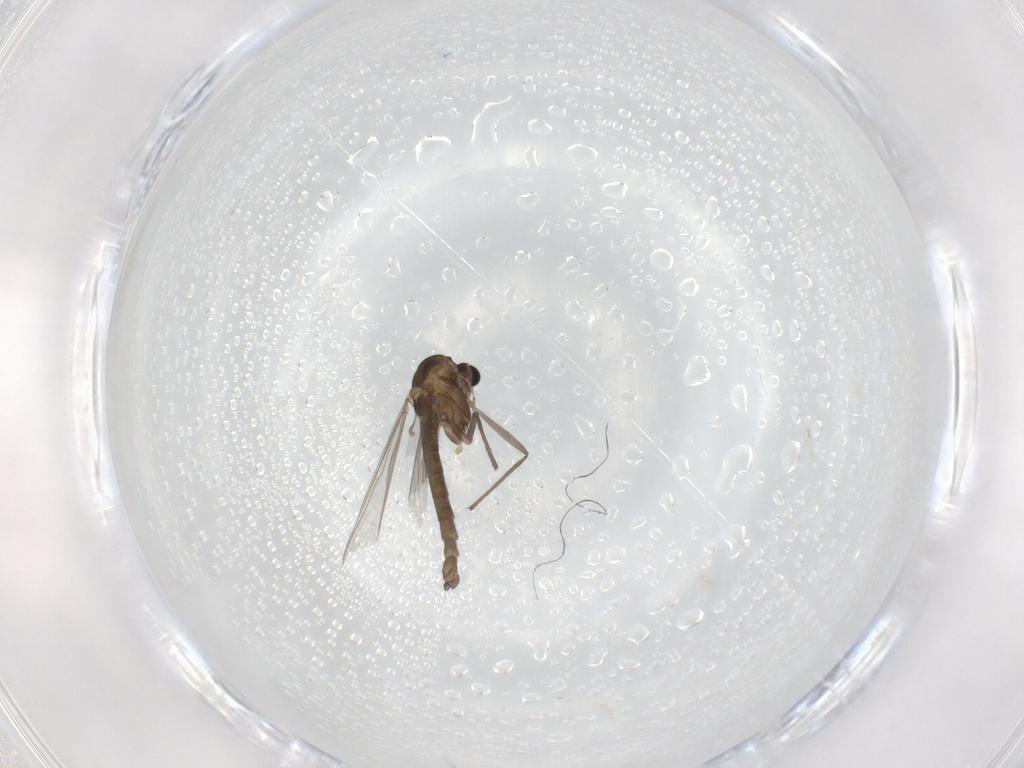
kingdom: Animalia
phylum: Arthropoda
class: Insecta
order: Diptera
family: Chironomidae
